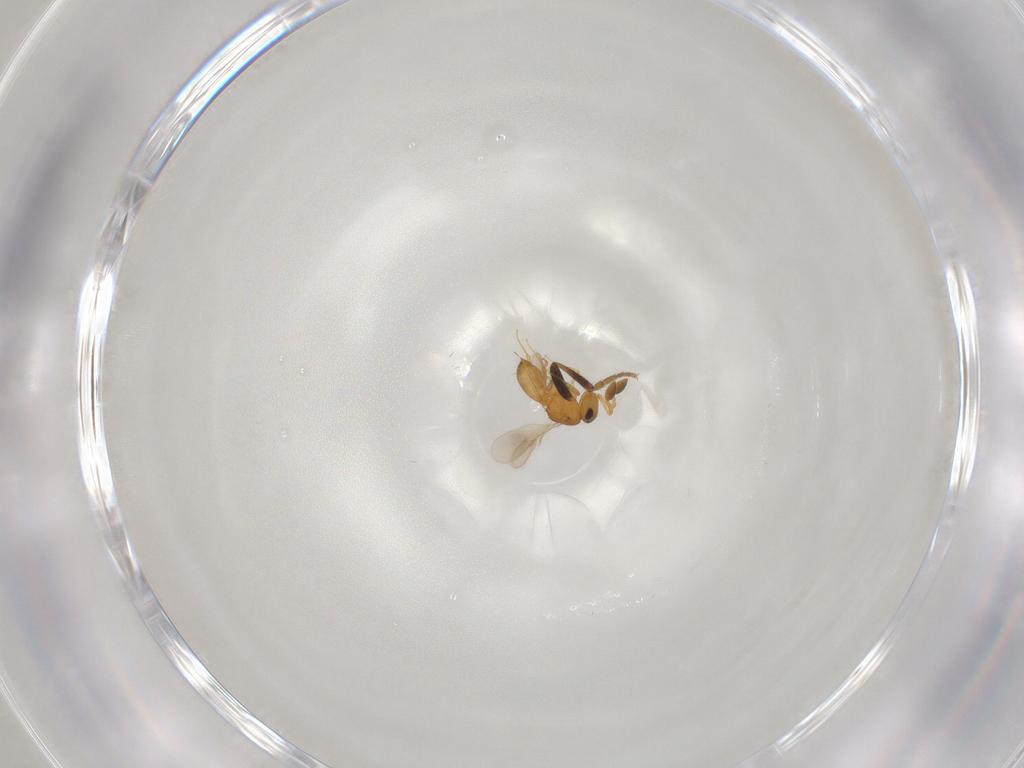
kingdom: Animalia
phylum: Arthropoda
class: Insecta
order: Hymenoptera
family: Scelionidae
